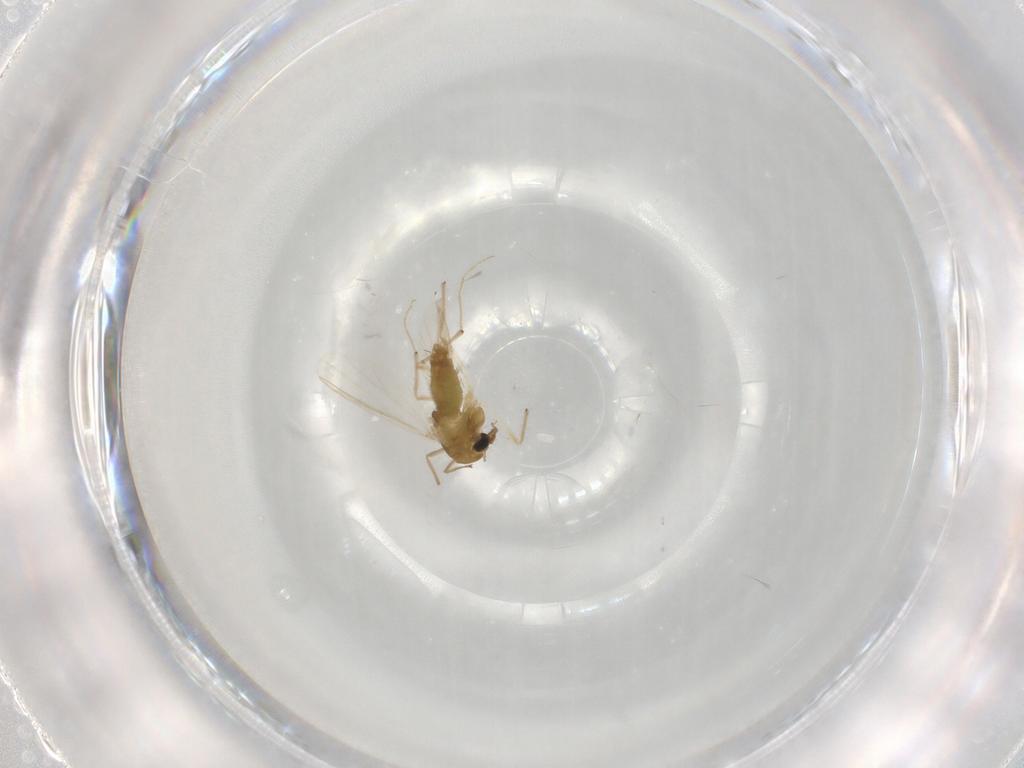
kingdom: Animalia
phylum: Arthropoda
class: Insecta
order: Diptera
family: Chironomidae
